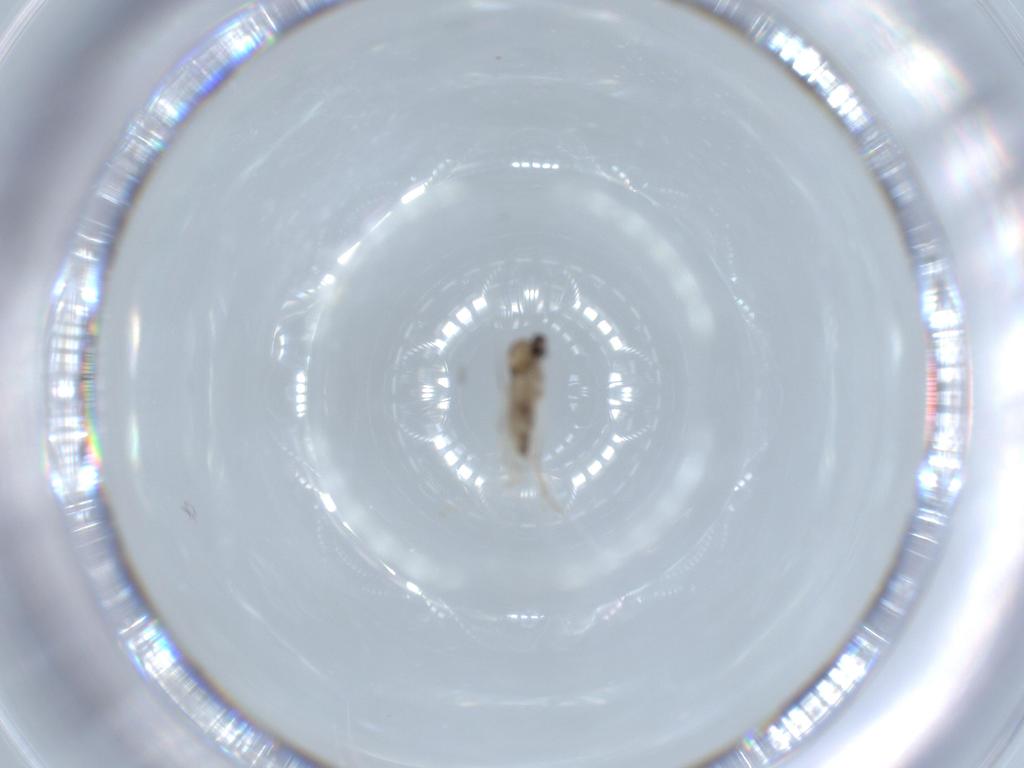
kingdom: Animalia
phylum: Arthropoda
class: Insecta
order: Diptera
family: Cecidomyiidae
